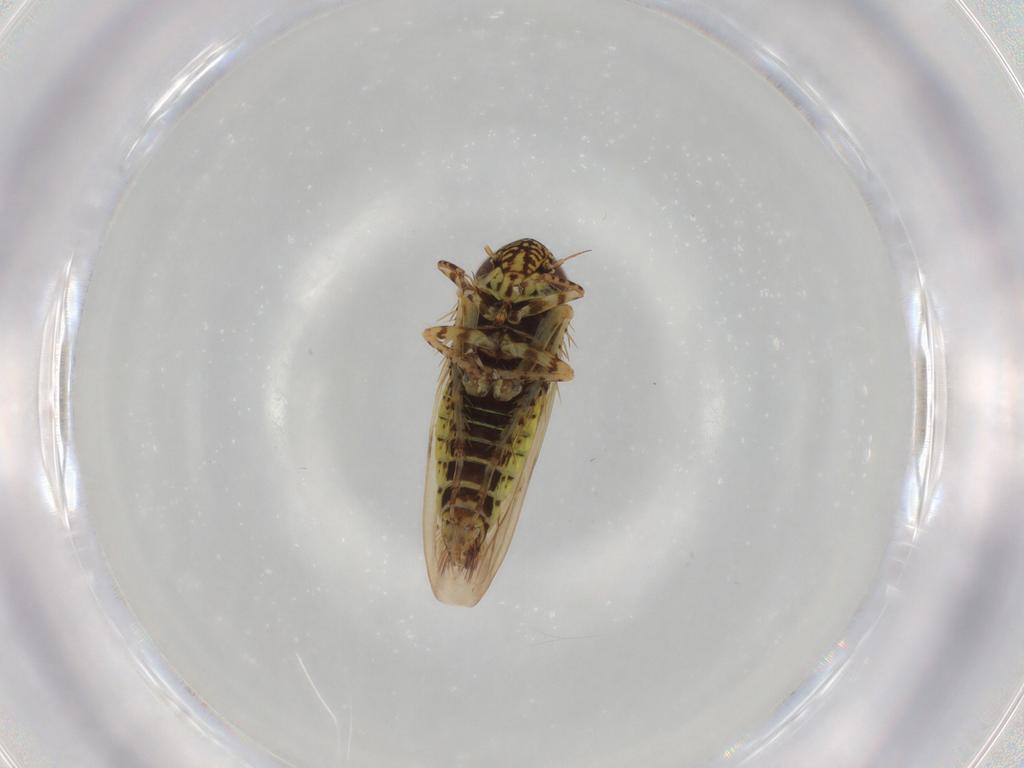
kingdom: Animalia
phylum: Arthropoda
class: Insecta
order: Hemiptera
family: Cicadellidae
